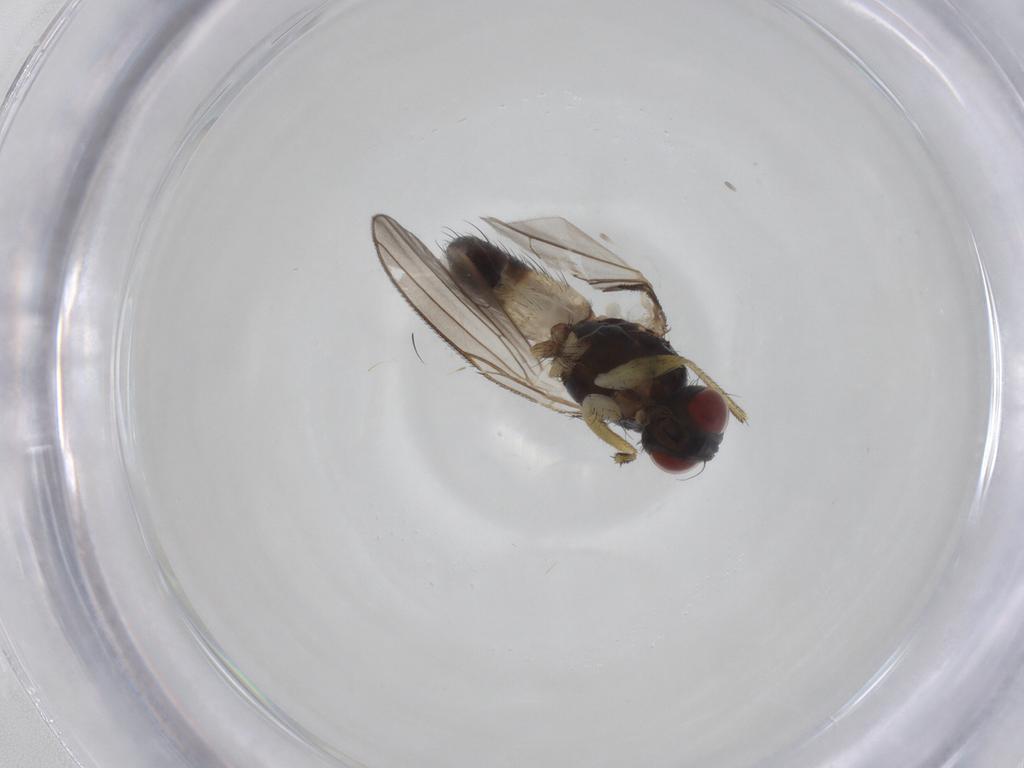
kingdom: Animalia
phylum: Arthropoda
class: Insecta
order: Diptera
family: Muscidae
